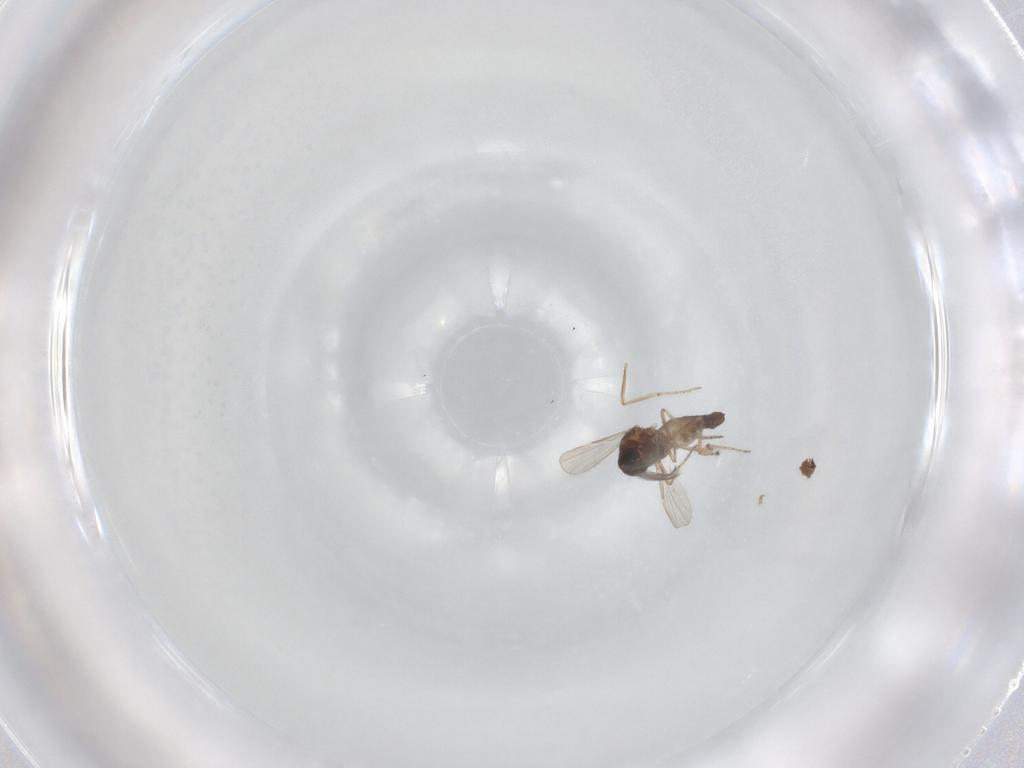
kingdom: Animalia
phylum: Arthropoda
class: Insecta
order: Diptera
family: Ceratopogonidae
